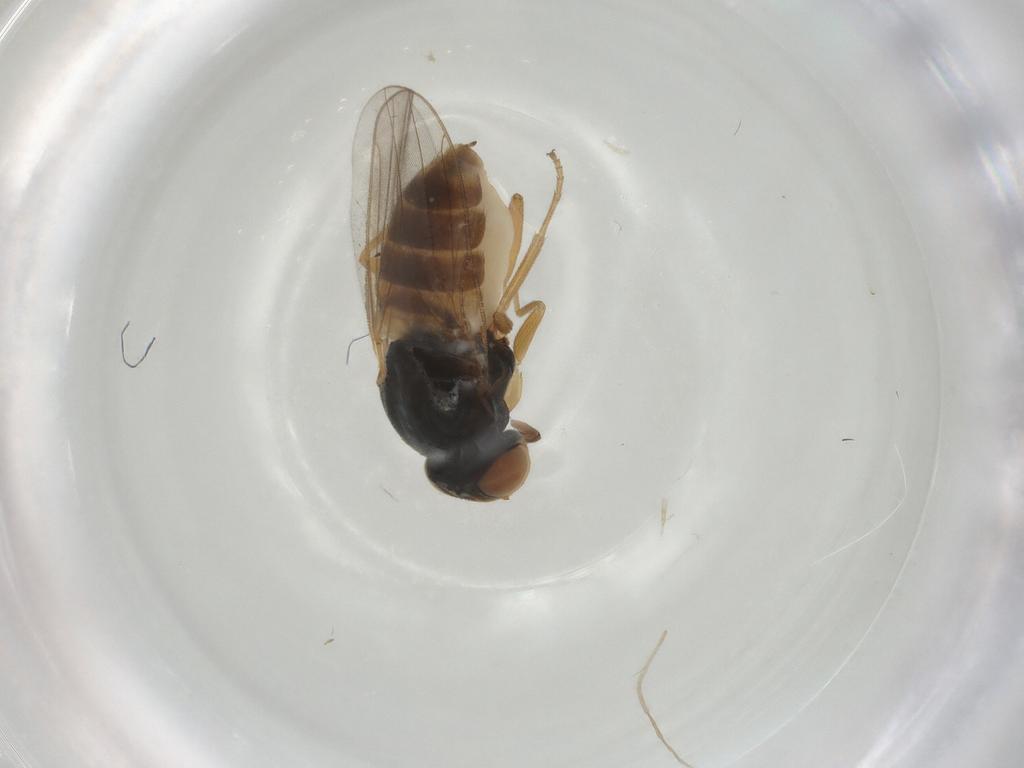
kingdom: Animalia
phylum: Arthropoda
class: Insecta
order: Diptera
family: Chloropidae
